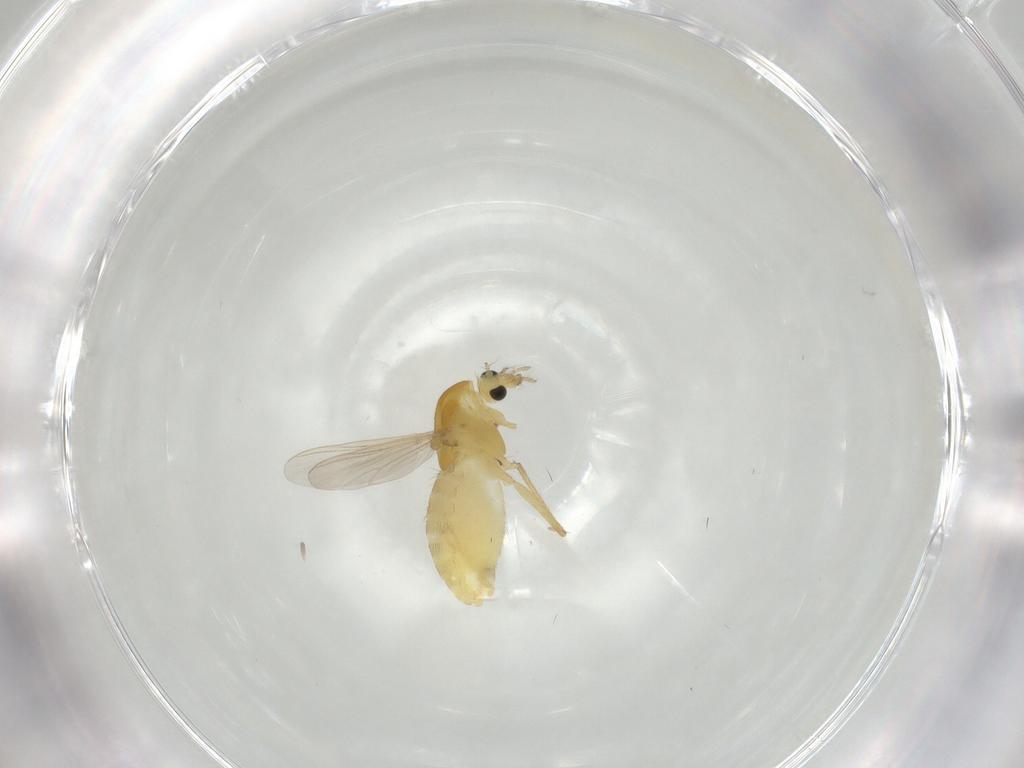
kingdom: Animalia
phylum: Arthropoda
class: Insecta
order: Diptera
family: Chironomidae
